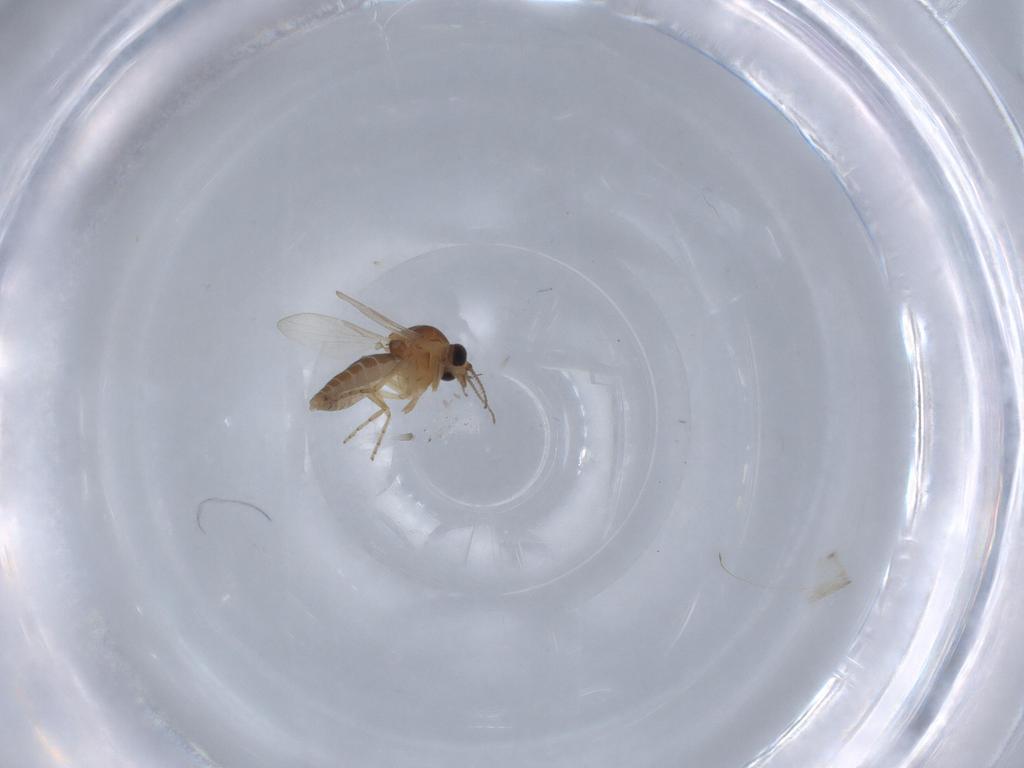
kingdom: Animalia
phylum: Arthropoda
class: Insecta
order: Diptera
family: Ceratopogonidae
